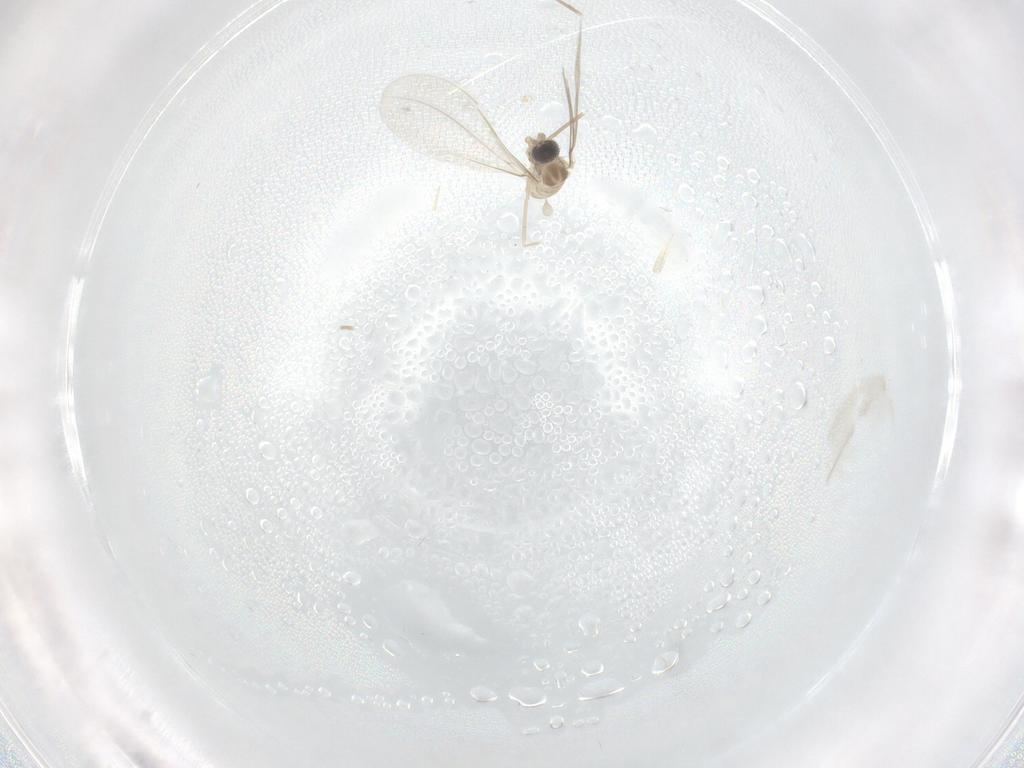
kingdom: Animalia
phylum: Arthropoda
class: Insecta
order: Diptera
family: Cecidomyiidae
